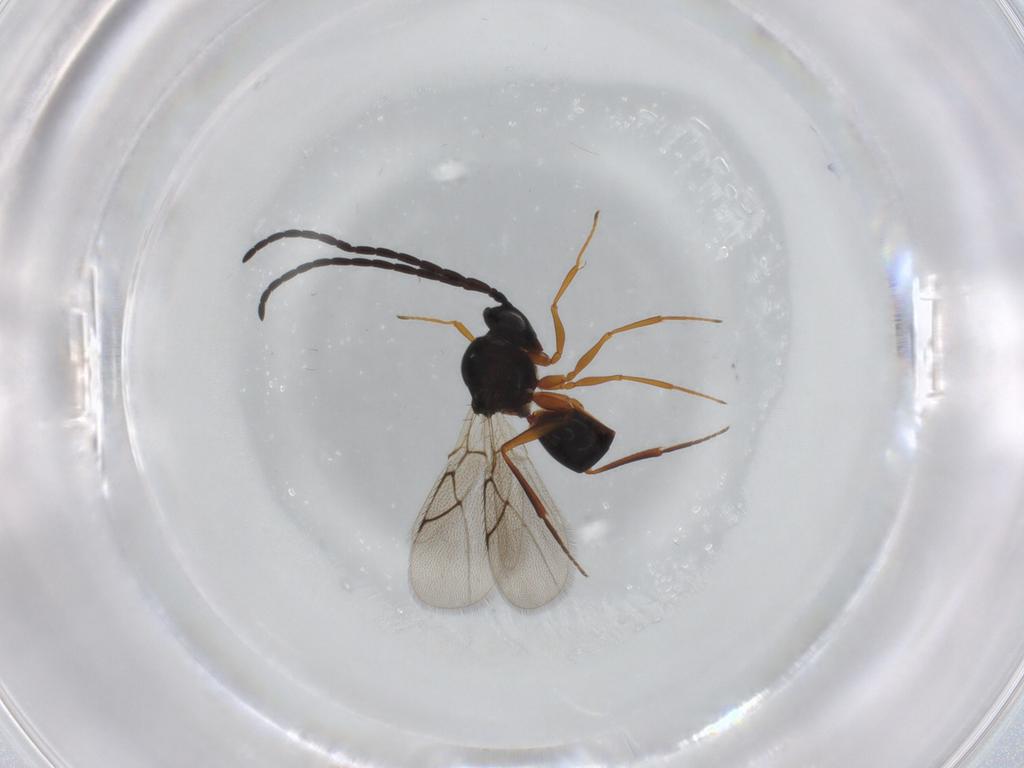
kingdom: Animalia
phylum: Arthropoda
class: Insecta
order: Hymenoptera
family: Figitidae
